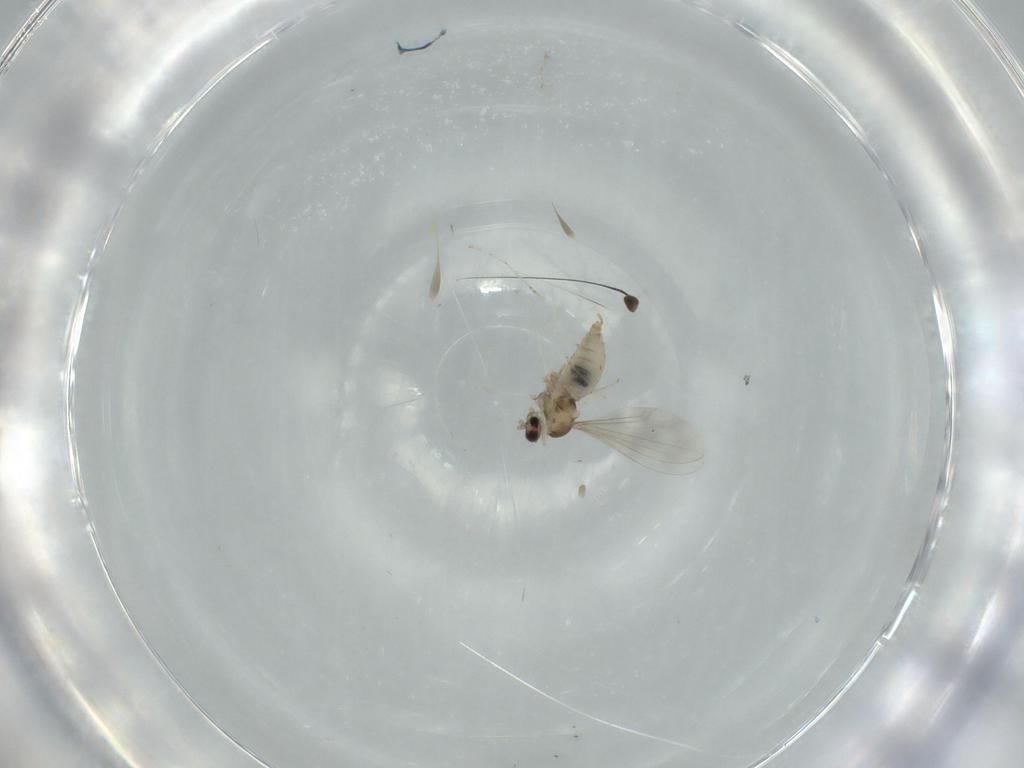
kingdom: Animalia
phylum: Arthropoda
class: Insecta
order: Diptera
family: Cecidomyiidae
